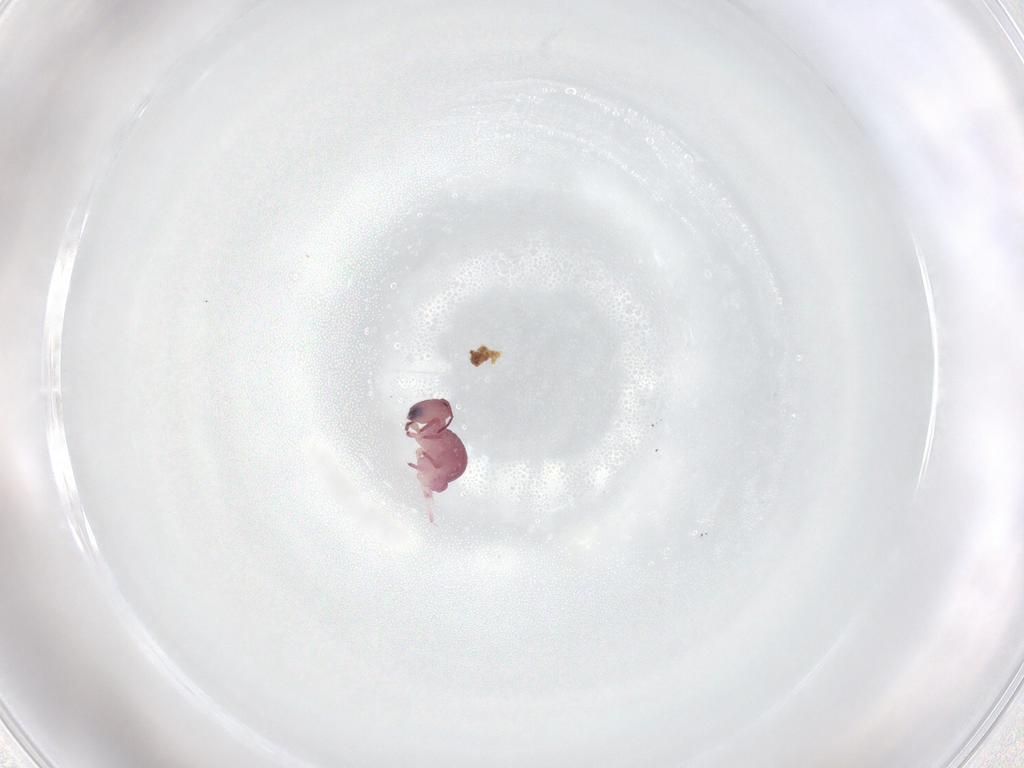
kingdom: Animalia
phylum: Arthropoda
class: Collembola
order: Symphypleona
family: Sminthurididae
